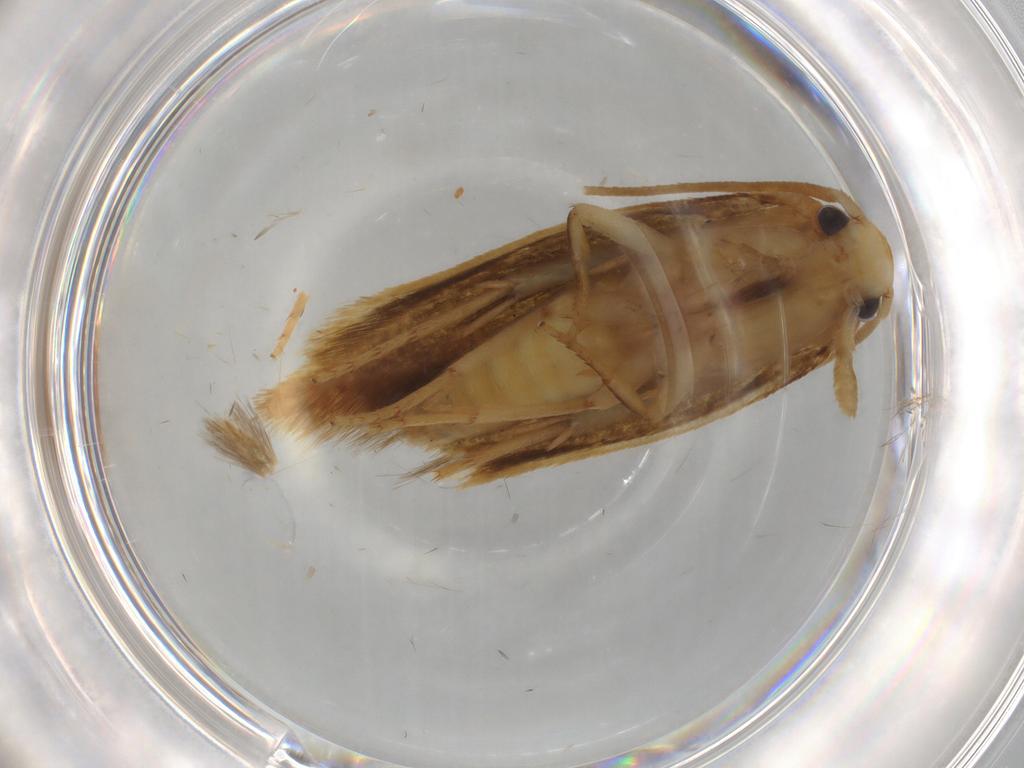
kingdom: Animalia
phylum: Arthropoda
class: Insecta
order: Lepidoptera
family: Tineidae
